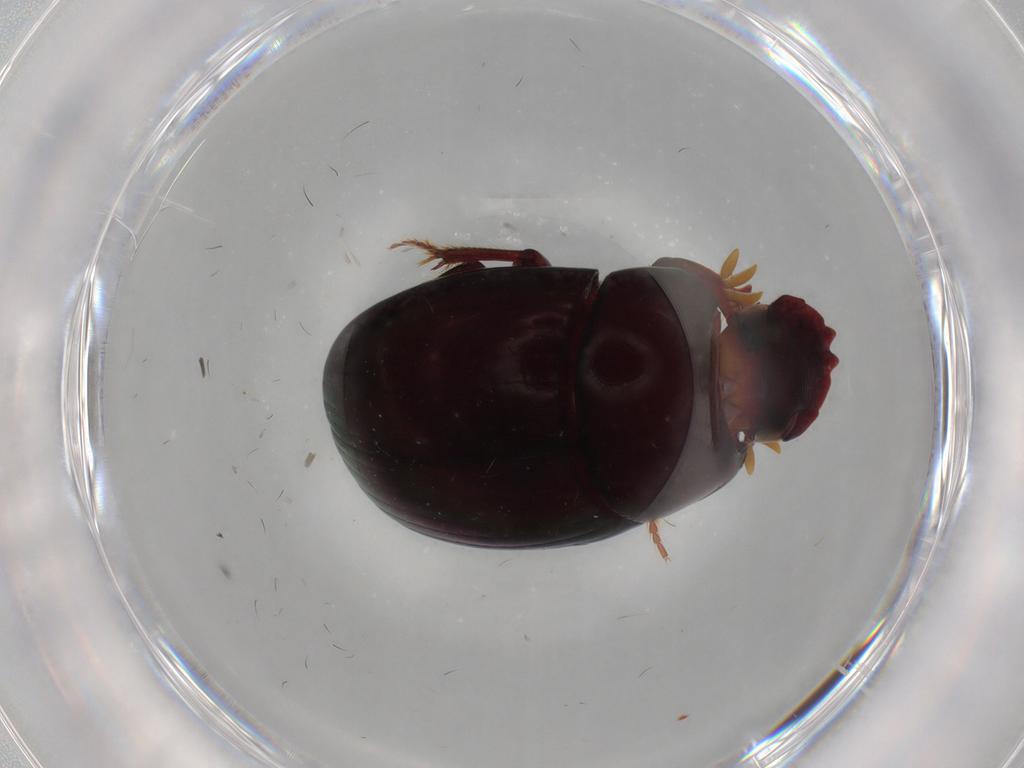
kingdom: Animalia
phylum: Arthropoda
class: Insecta
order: Coleoptera
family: Scarabaeidae
